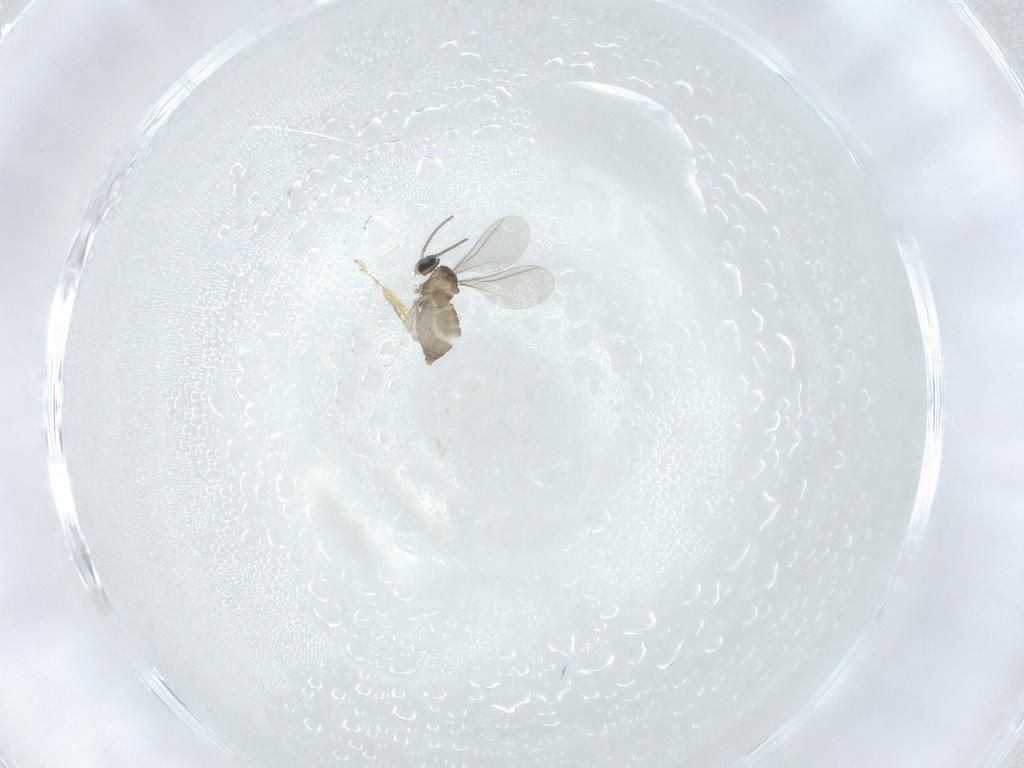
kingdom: Animalia
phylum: Arthropoda
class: Insecta
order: Diptera
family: Cecidomyiidae
